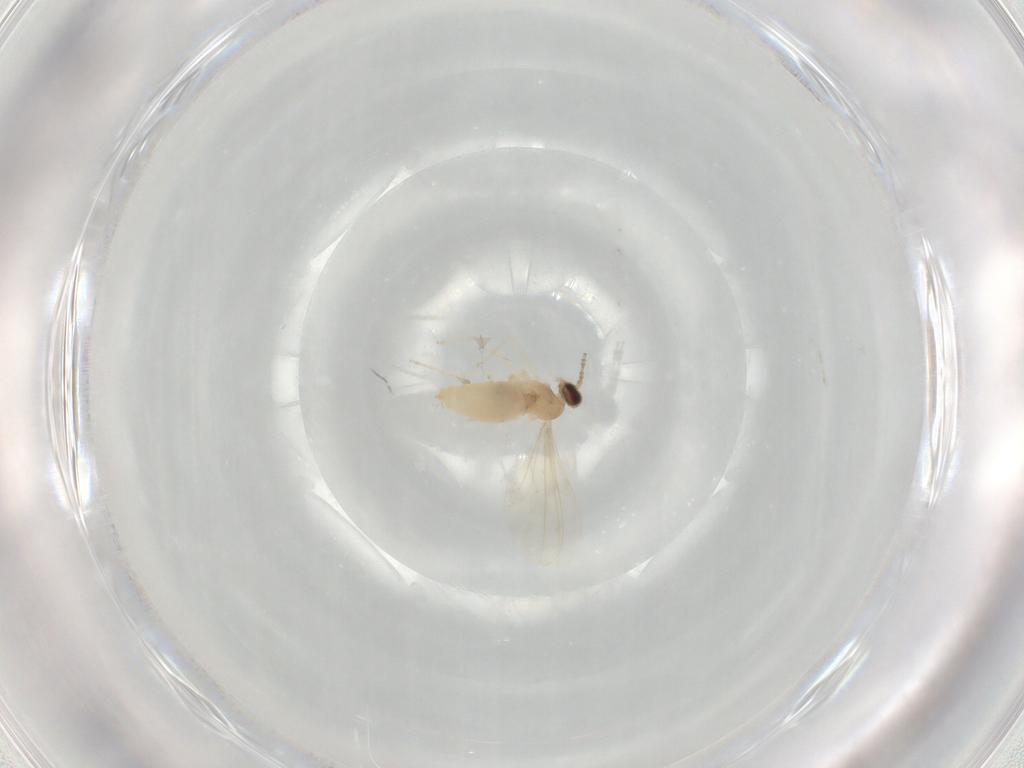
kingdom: Animalia
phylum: Arthropoda
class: Insecta
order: Diptera
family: Cecidomyiidae
